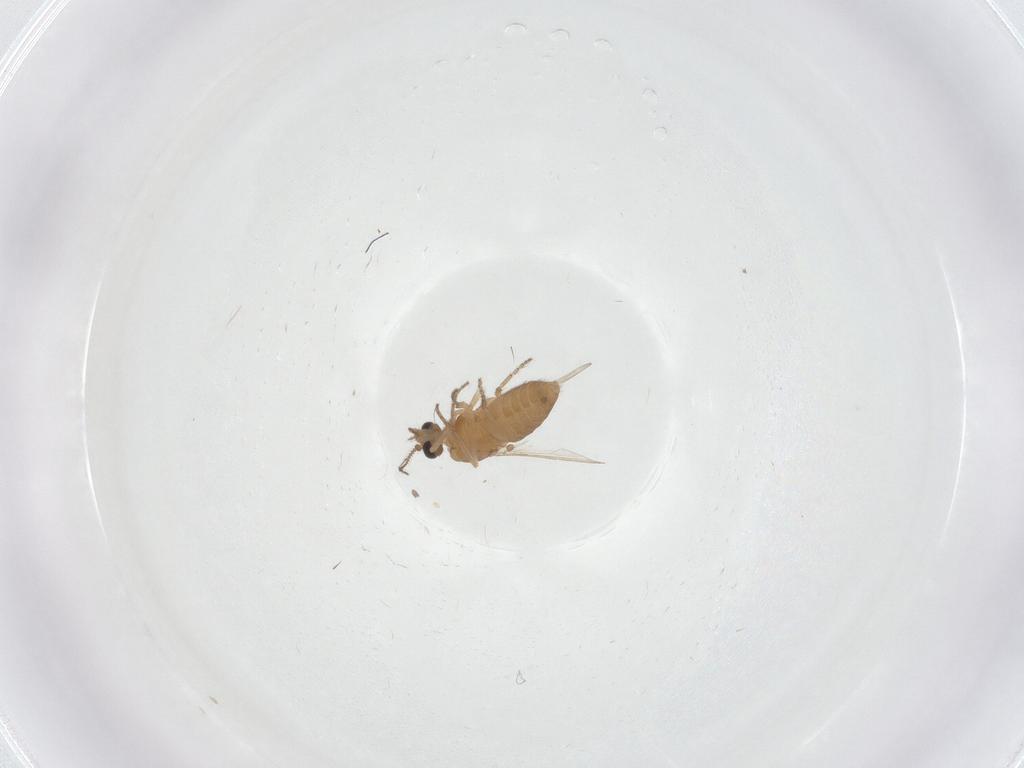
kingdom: Animalia
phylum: Arthropoda
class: Insecta
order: Diptera
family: Ceratopogonidae
